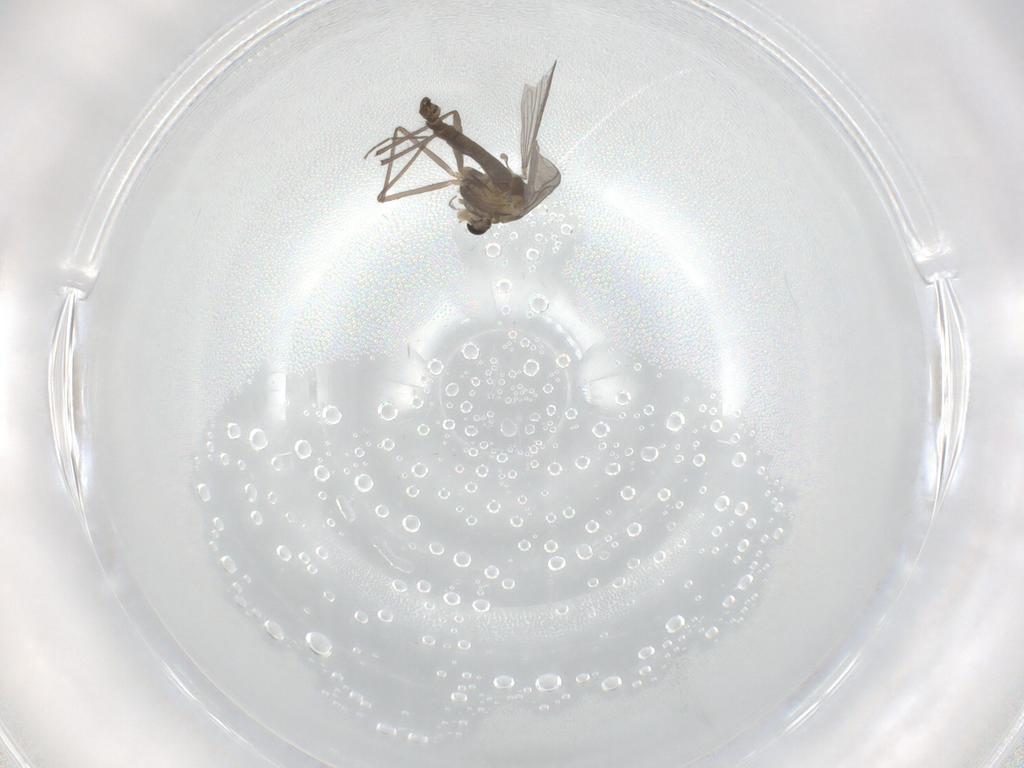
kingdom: Animalia
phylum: Arthropoda
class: Insecta
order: Diptera
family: Chironomidae
